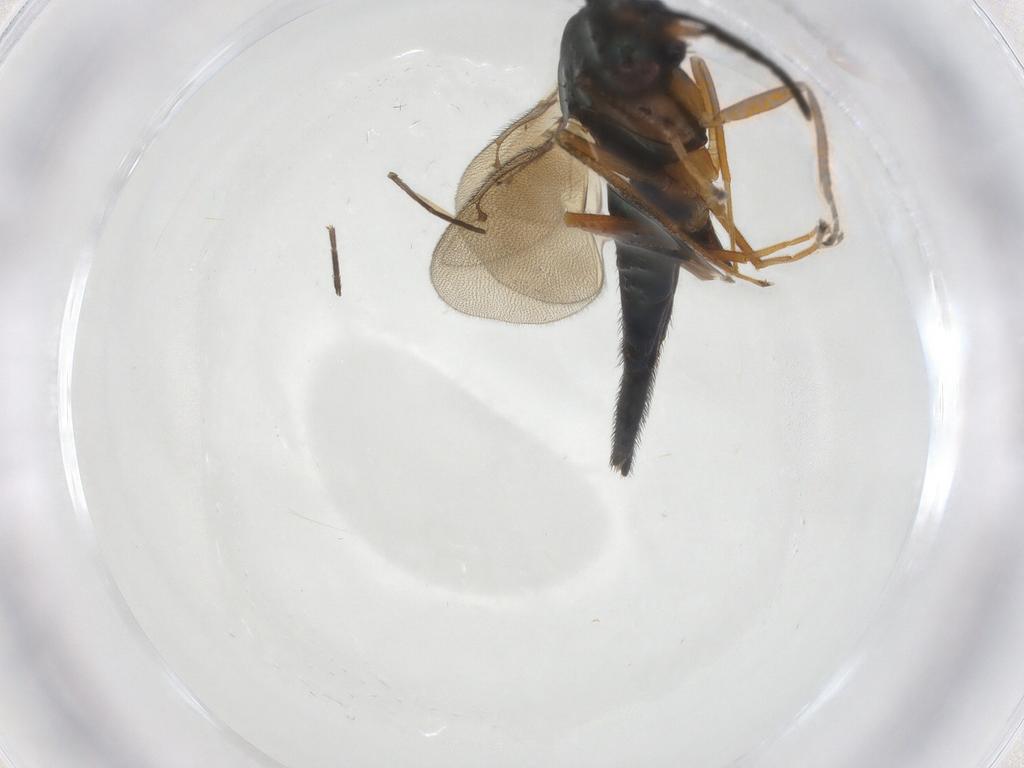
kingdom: Animalia
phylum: Arthropoda
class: Insecta
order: Hymenoptera
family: Eulophidae
